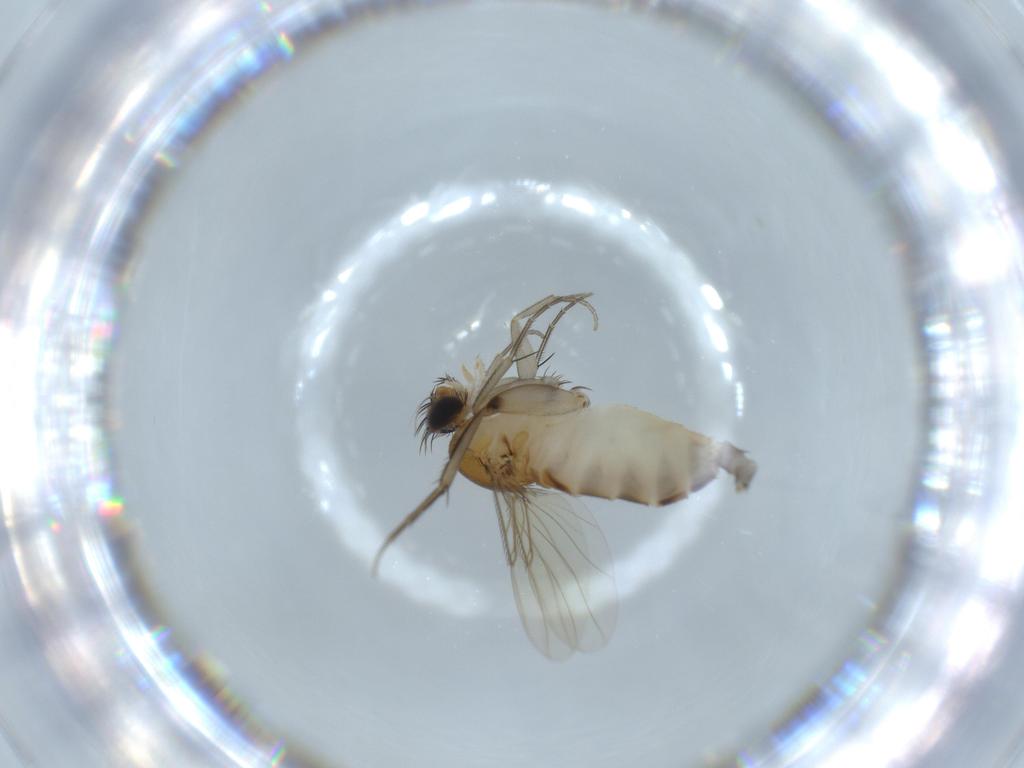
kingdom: Animalia
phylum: Arthropoda
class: Insecta
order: Diptera
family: Phoridae
